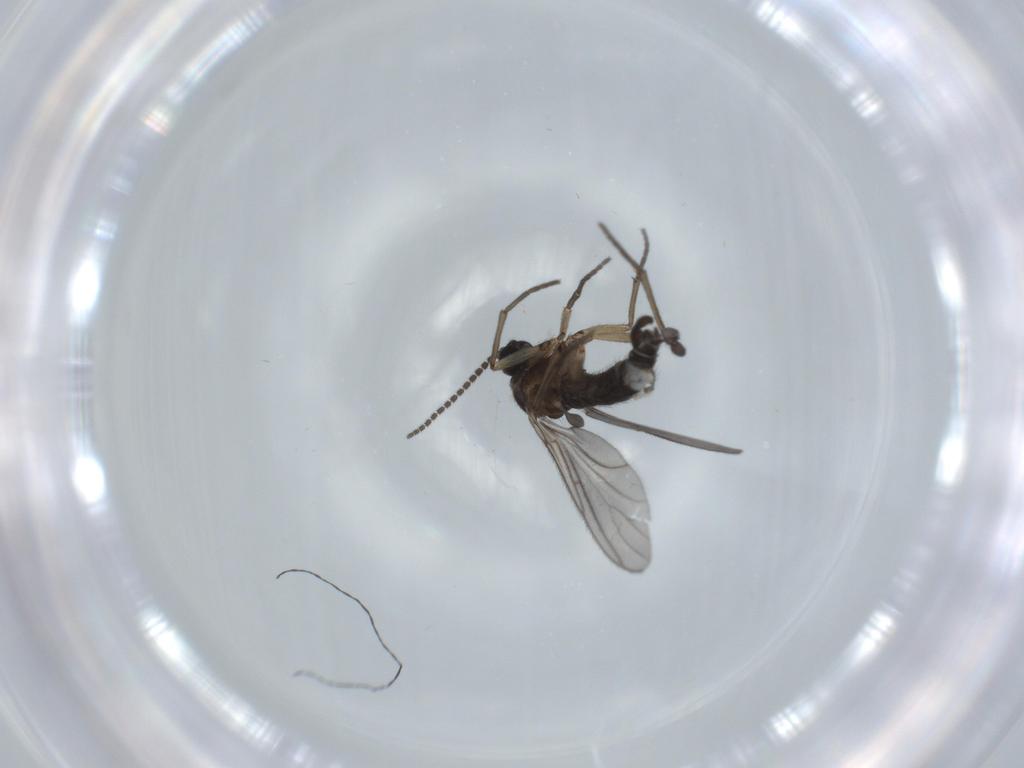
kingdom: Animalia
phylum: Arthropoda
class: Insecta
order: Diptera
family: Sciaridae
